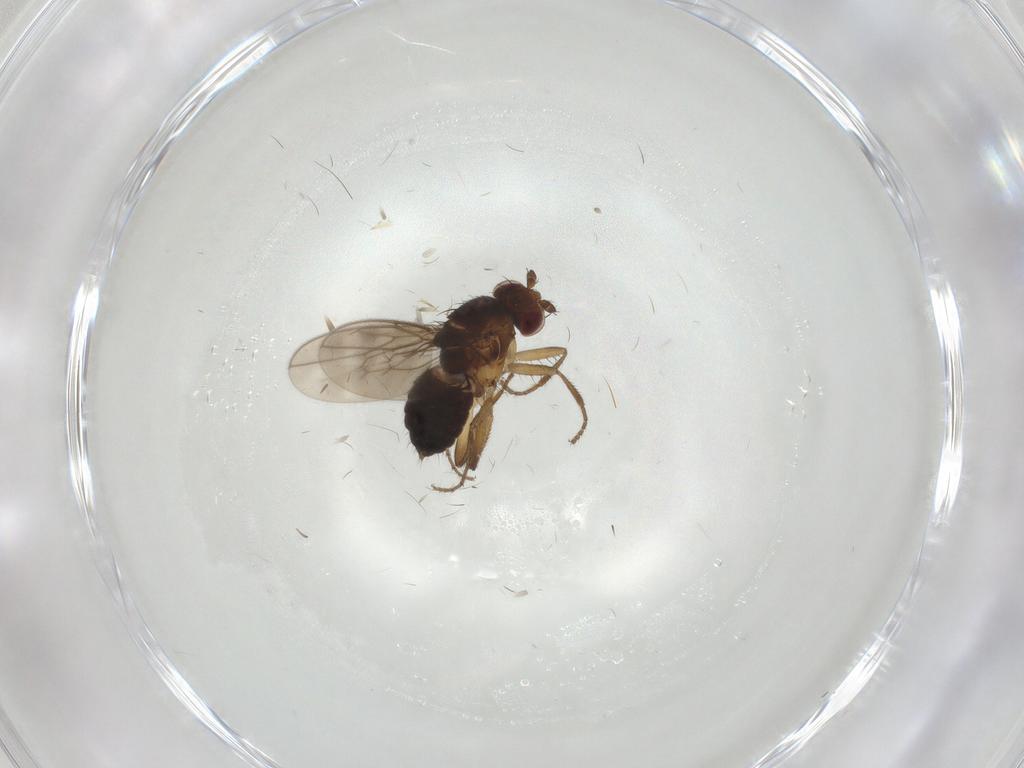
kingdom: Animalia
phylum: Arthropoda
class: Insecta
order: Diptera
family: Sphaeroceridae
